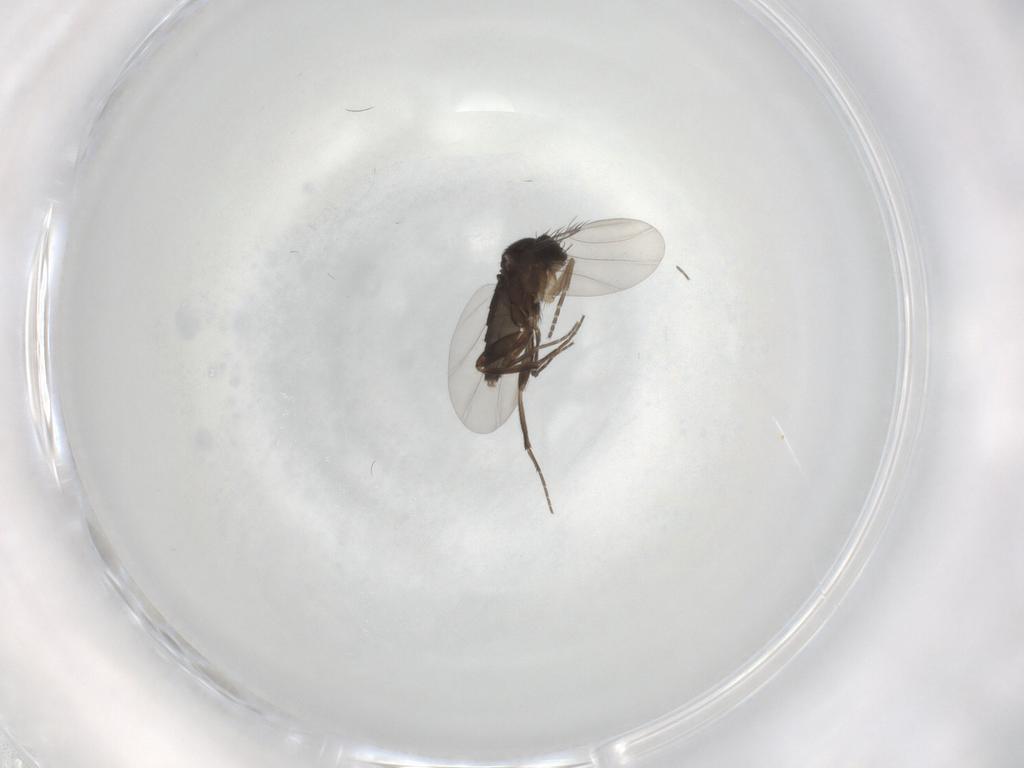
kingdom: Animalia
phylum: Arthropoda
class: Insecta
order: Diptera
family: Phoridae
